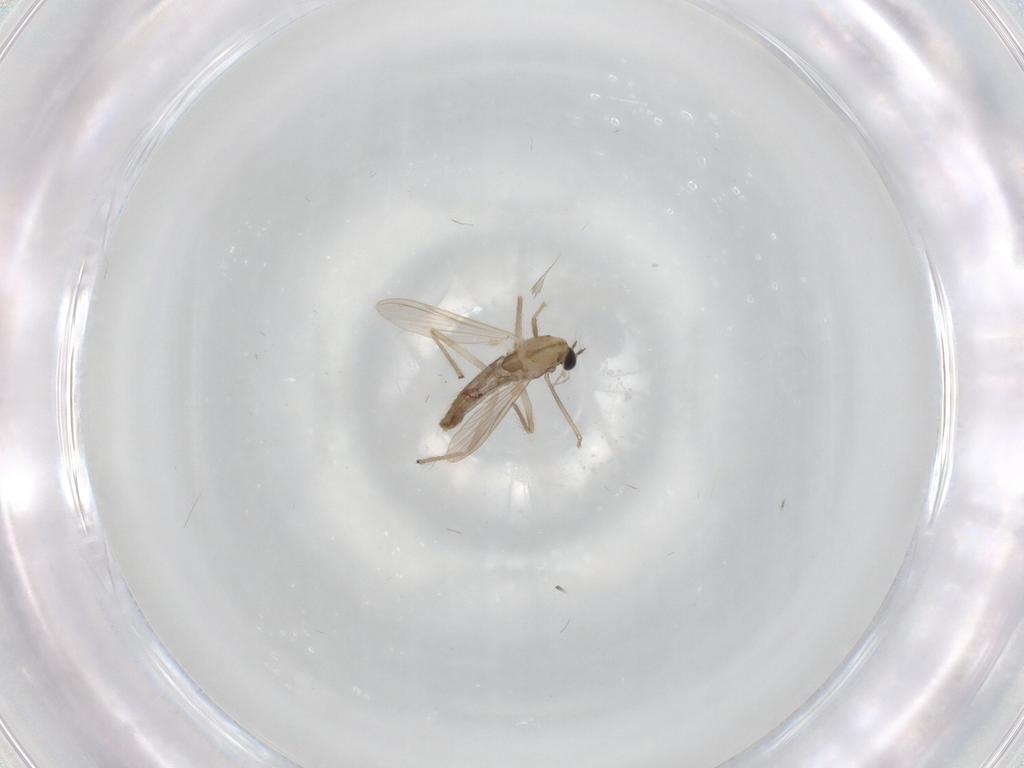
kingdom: Animalia
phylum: Arthropoda
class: Insecta
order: Diptera
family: Chironomidae
